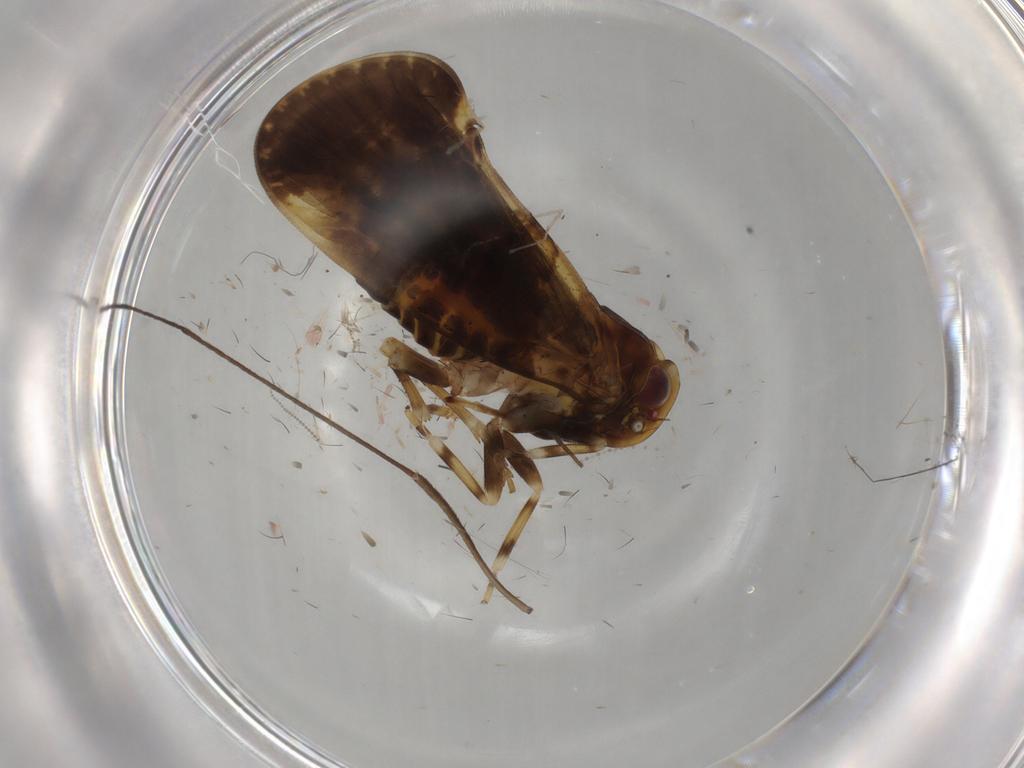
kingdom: Animalia
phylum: Arthropoda
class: Insecta
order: Hemiptera
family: Cixiidae
